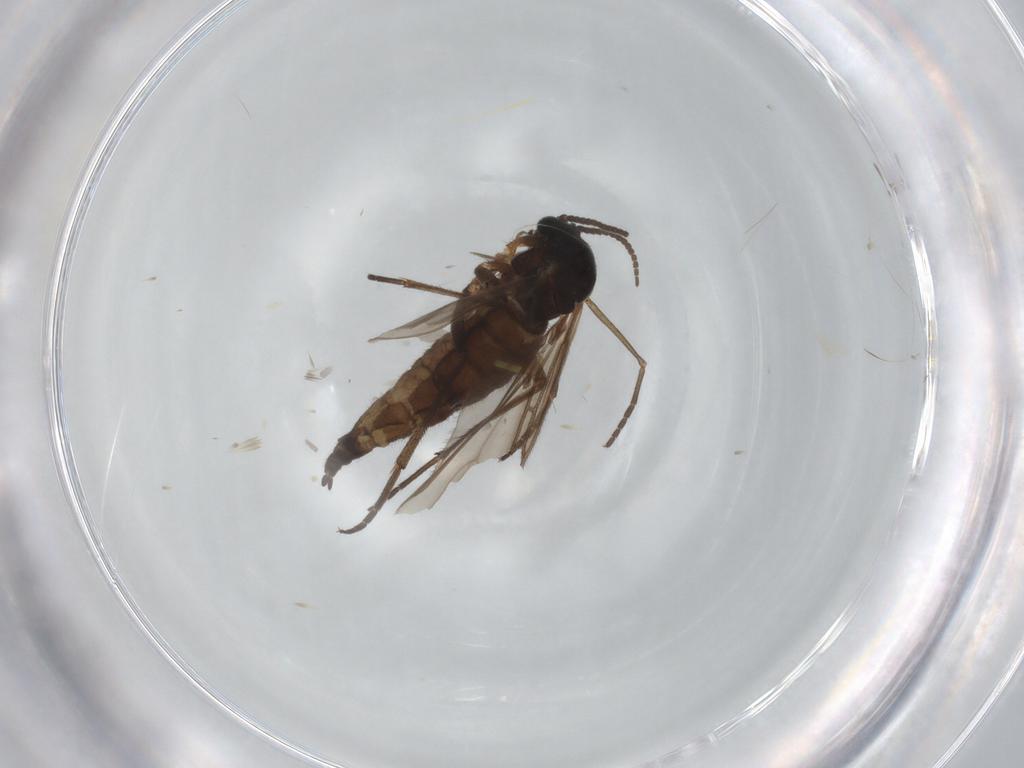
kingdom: Animalia
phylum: Arthropoda
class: Insecta
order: Diptera
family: Sciaridae
